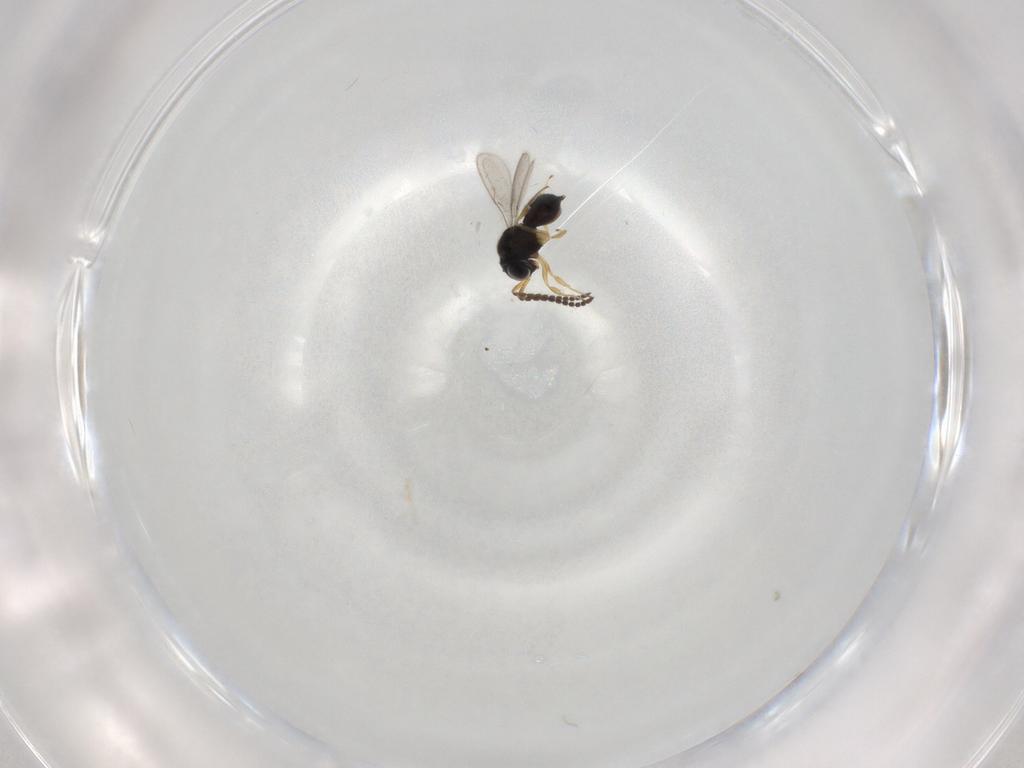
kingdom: Animalia
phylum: Arthropoda
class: Insecta
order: Hymenoptera
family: Scelionidae
